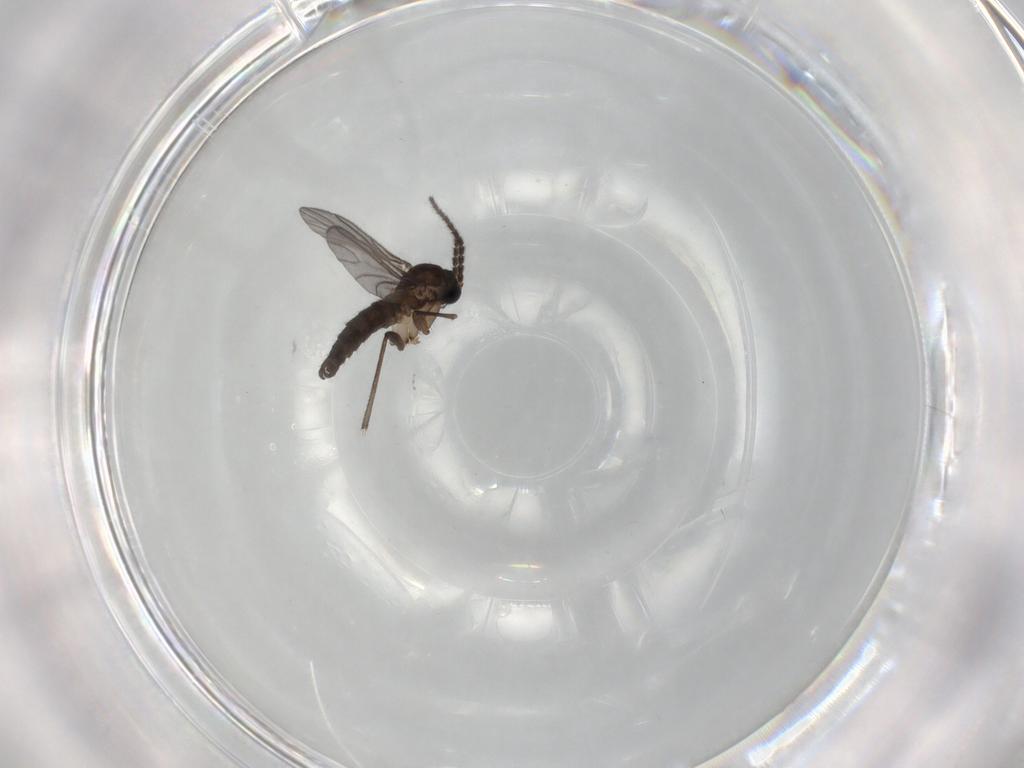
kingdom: Animalia
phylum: Arthropoda
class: Insecta
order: Diptera
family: Sciaridae
